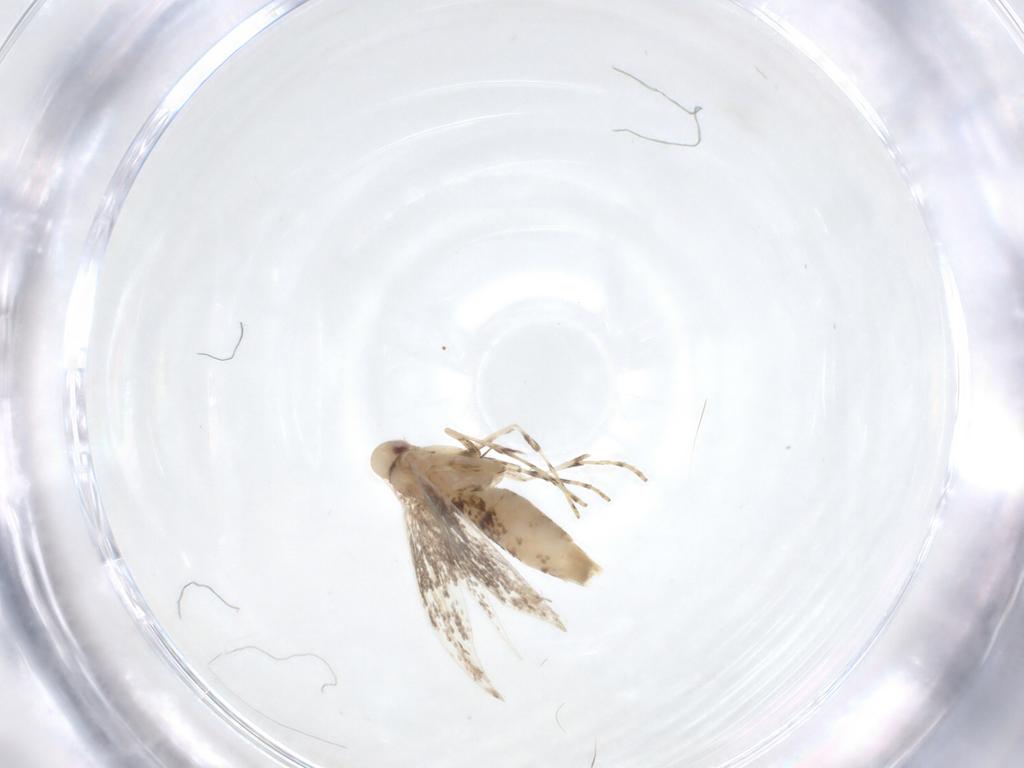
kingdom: Animalia
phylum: Arthropoda
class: Insecta
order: Lepidoptera
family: Gracillariidae
